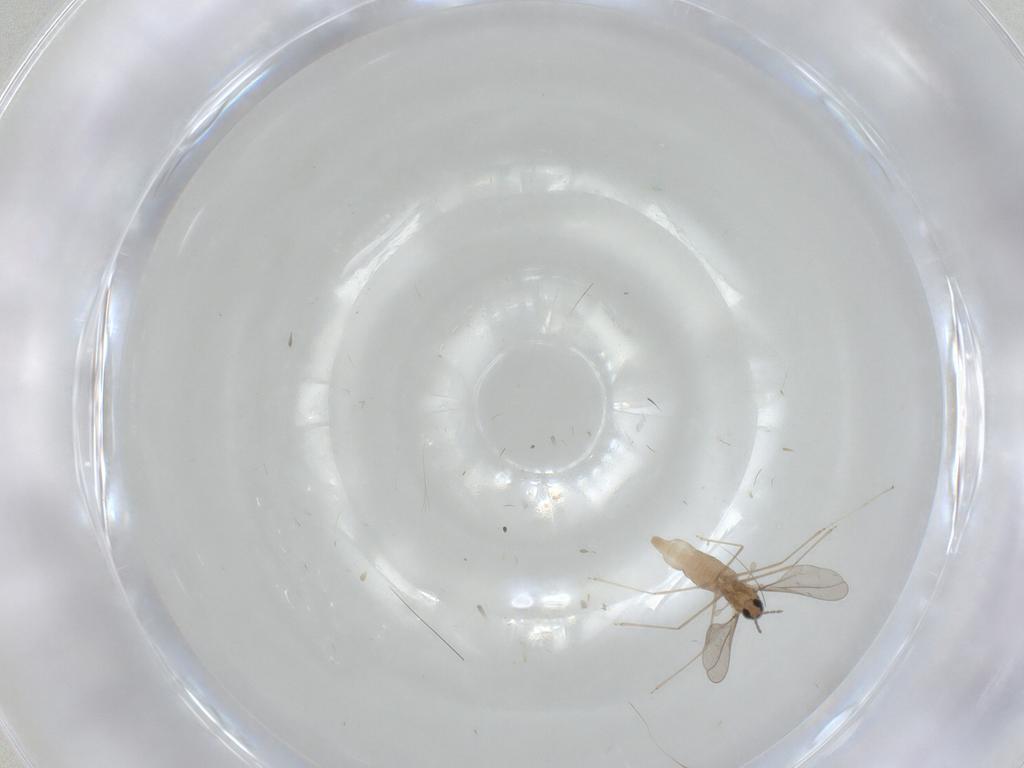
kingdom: Animalia
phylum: Arthropoda
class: Insecta
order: Diptera
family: Cecidomyiidae
